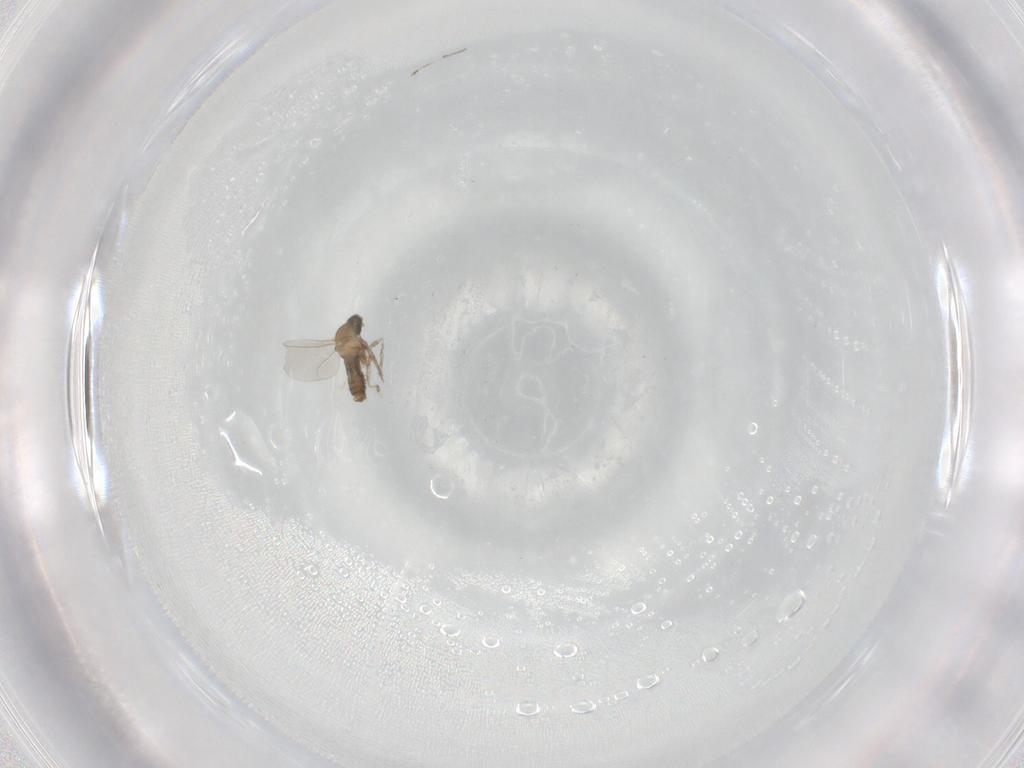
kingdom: Animalia
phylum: Arthropoda
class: Insecta
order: Diptera
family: Cecidomyiidae
